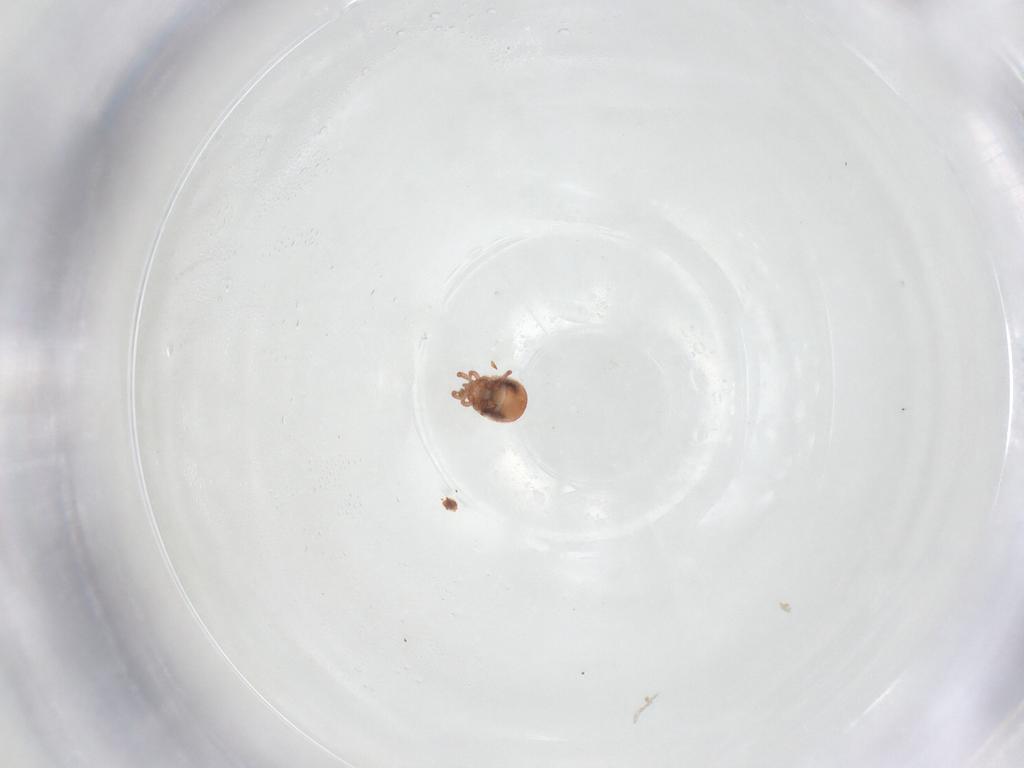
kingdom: Animalia
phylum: Arthropoda
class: Arachnida
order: Mesostigmata
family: Zerconidae
